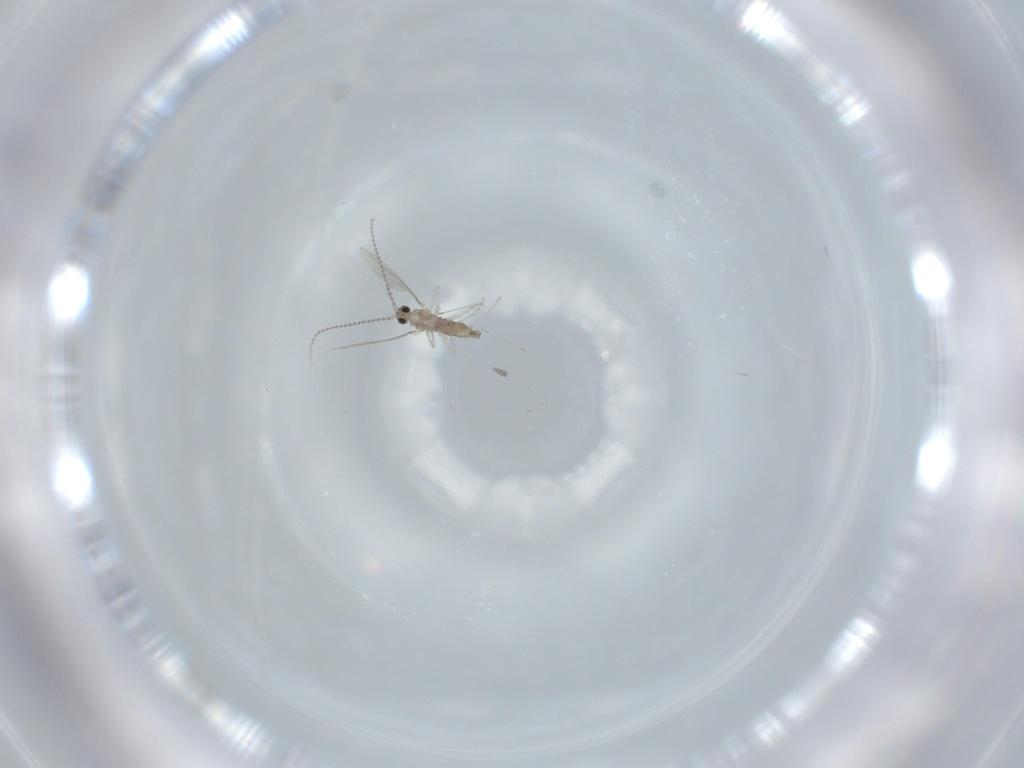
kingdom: Animalia
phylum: Arthropoda
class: Insecta
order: Diptera
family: Cecidomyiidae
